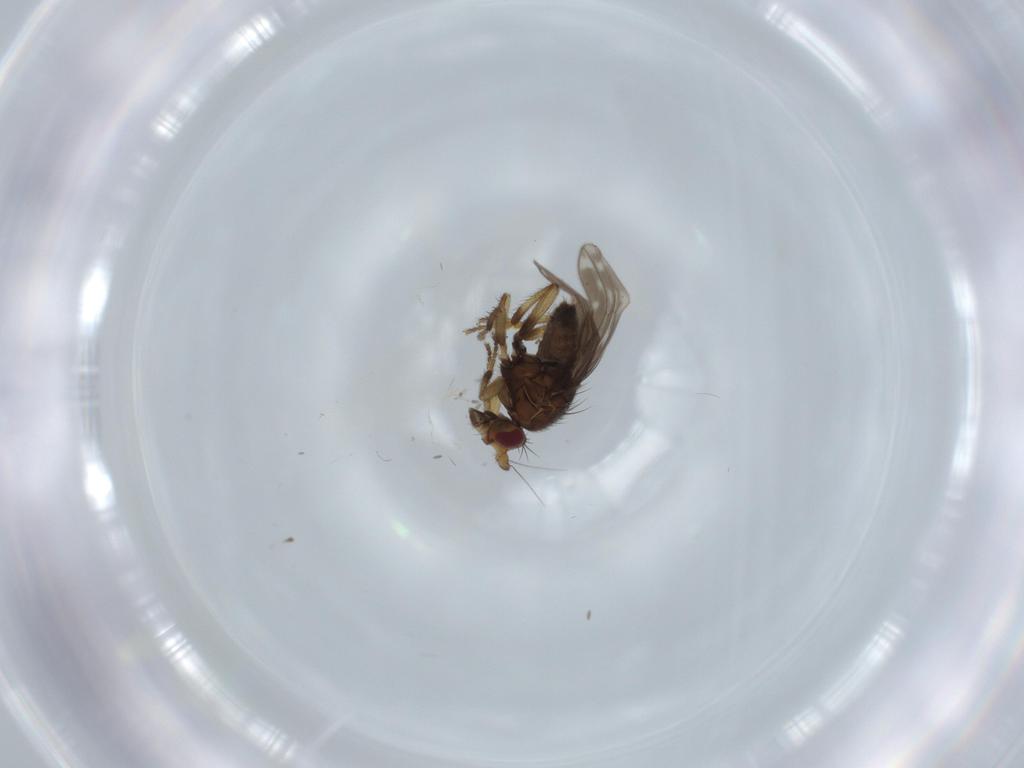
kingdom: Animalia
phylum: Arthropoda
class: Insecta
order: Diptera
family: Sphaeroceridae
